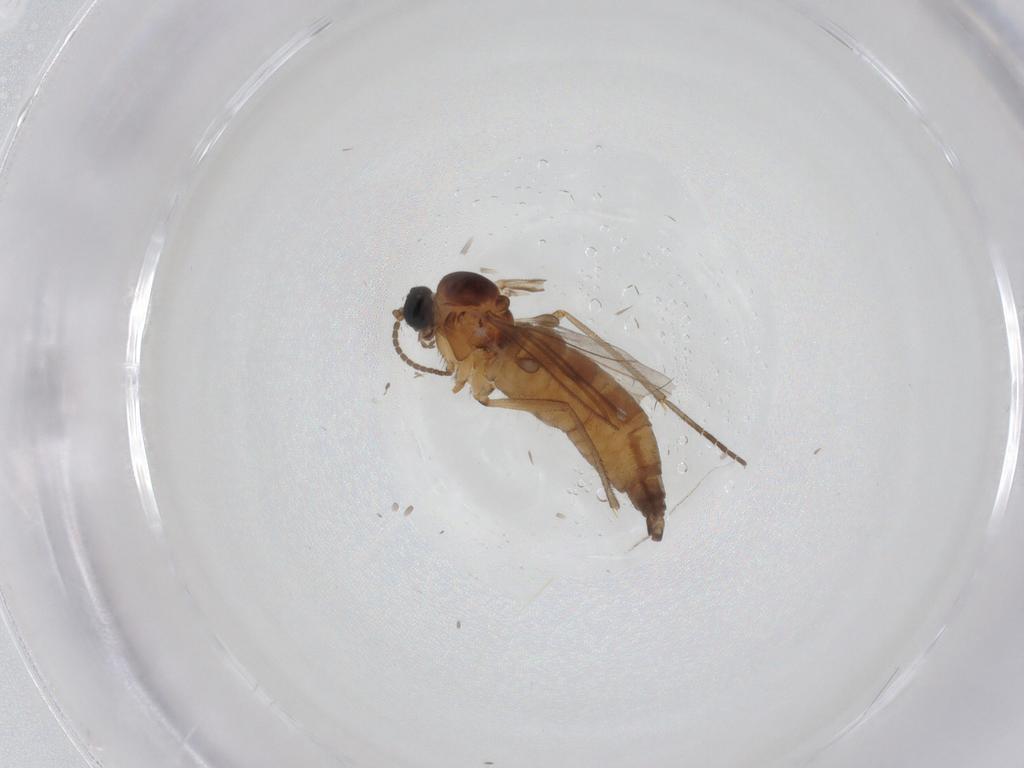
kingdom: Animalia
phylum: Arthropoda
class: Insecta
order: Diptera
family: Sciaridae
